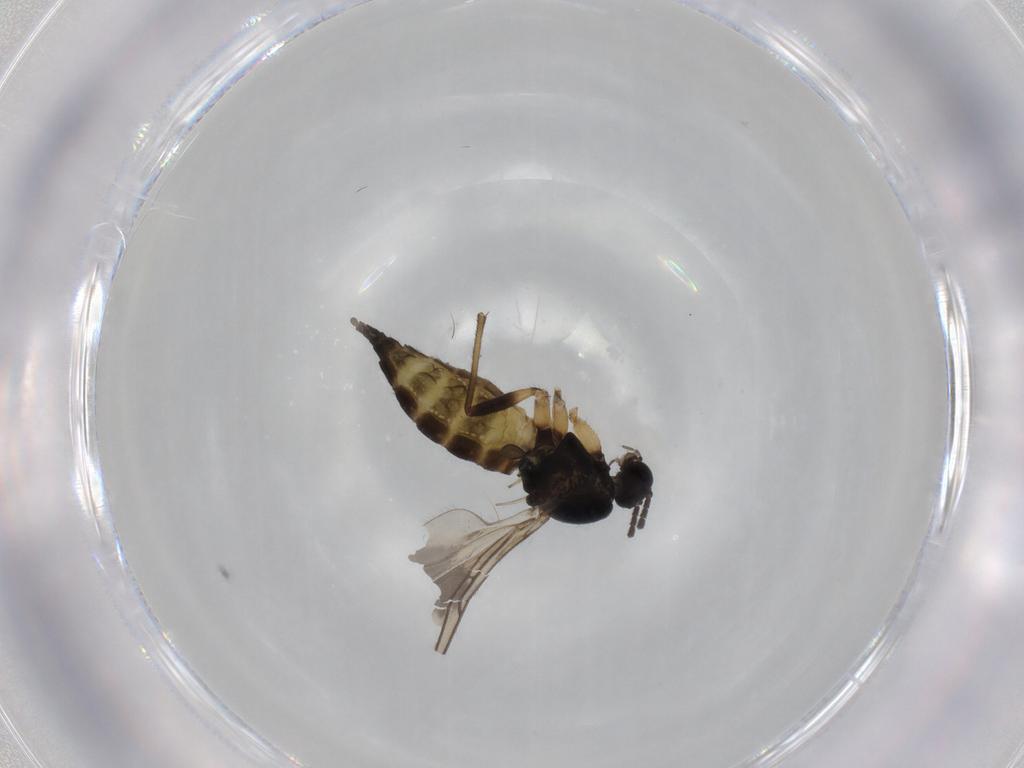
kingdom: Animalia
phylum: Arthropoda
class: Insecta
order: Diptera
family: Sciaridae
